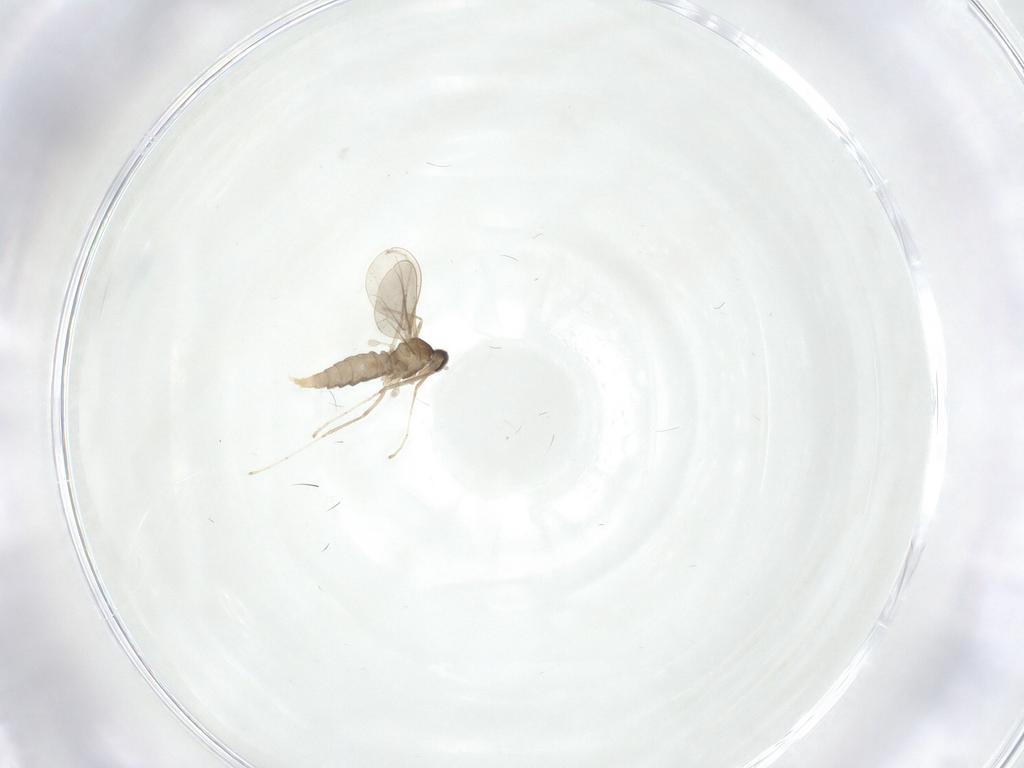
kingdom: Animalia
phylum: Arthropoda
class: Insecta
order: Diptera
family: Cecidomyiidae
